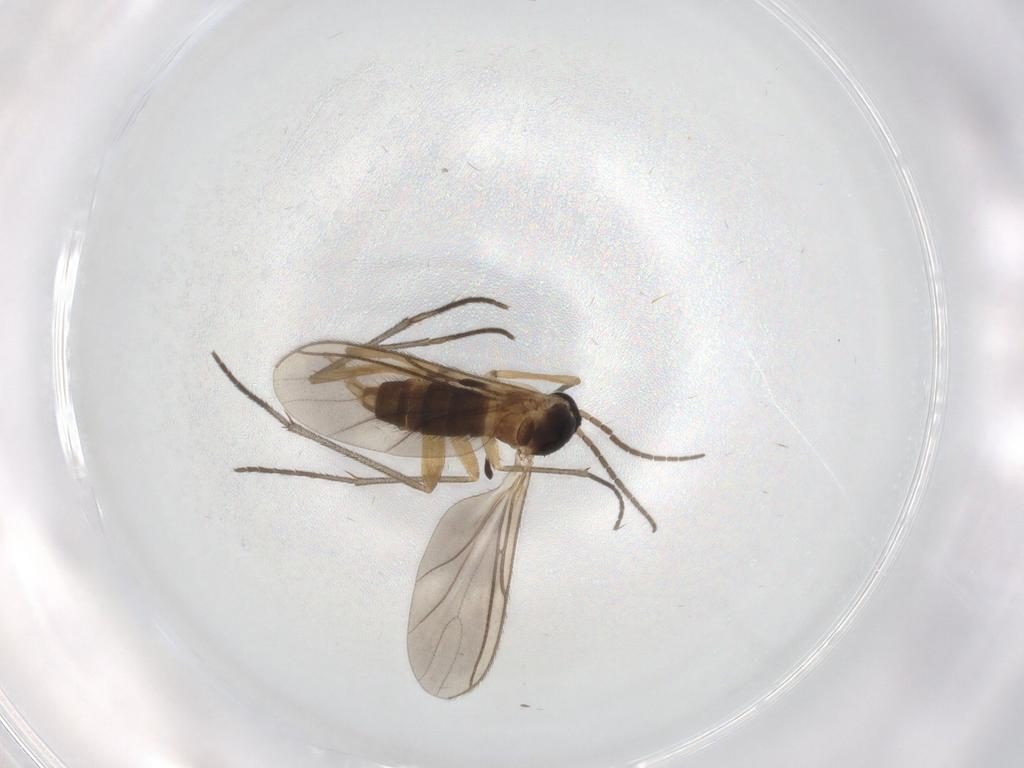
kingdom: Animalia
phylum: Arthropoda
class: Insecta
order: Diptera
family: Sciaridae
